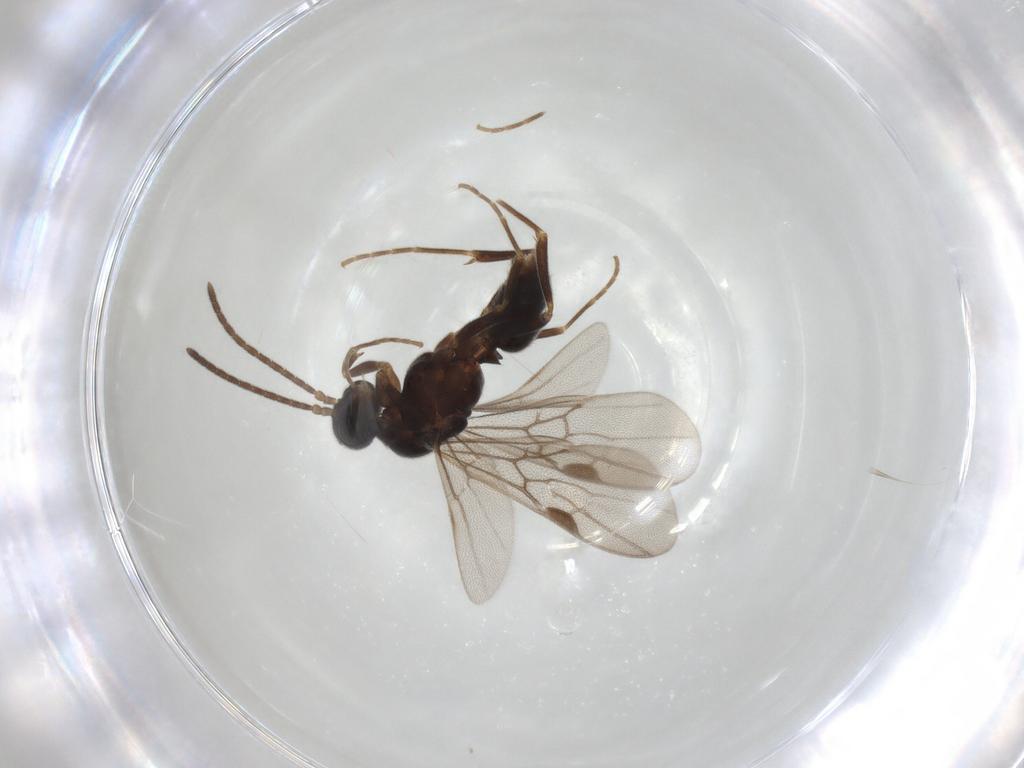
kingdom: Animalia
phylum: Arthropoda
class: Insecta
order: Hymenoptera
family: Formicidae
